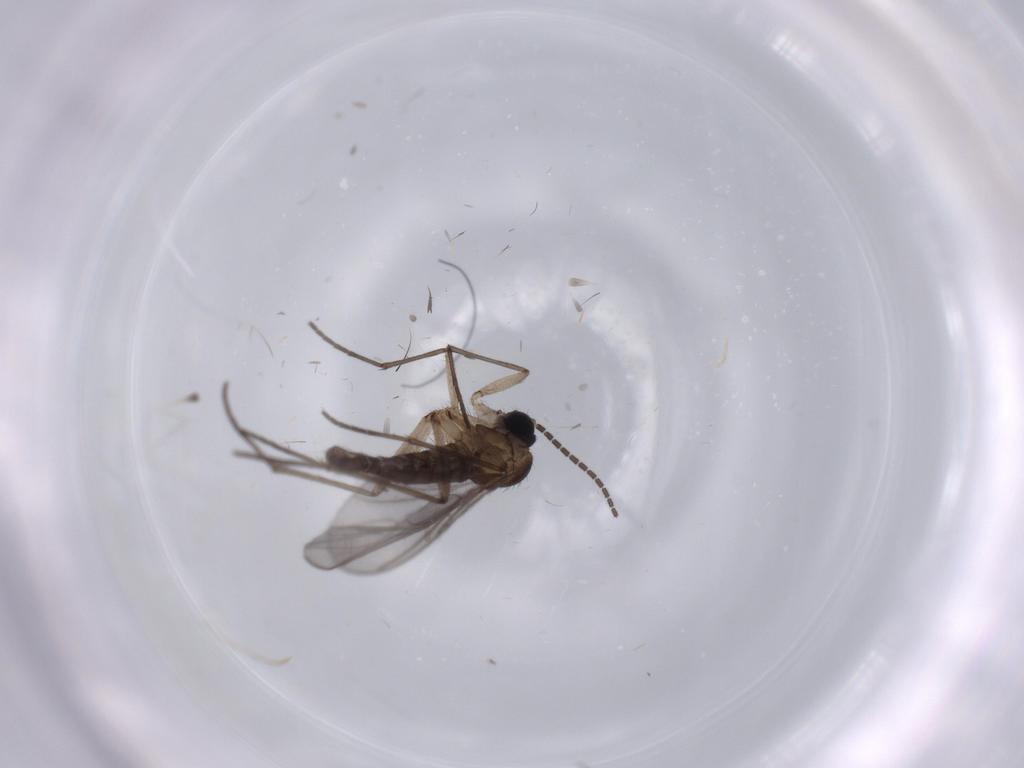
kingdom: Animalia
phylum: Arthropoda
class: Insecta
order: Diptera
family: Sciaridae
